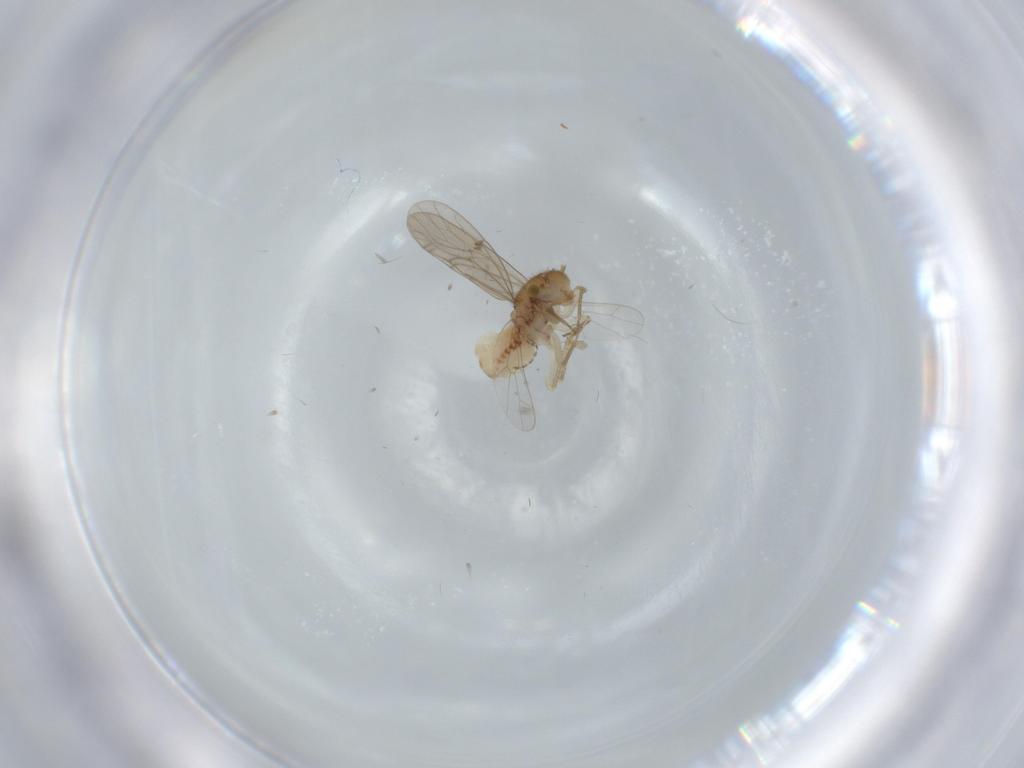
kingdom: Animalia
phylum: Arthropoda
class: Insecta
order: Psocodea
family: Ectopsocidae
